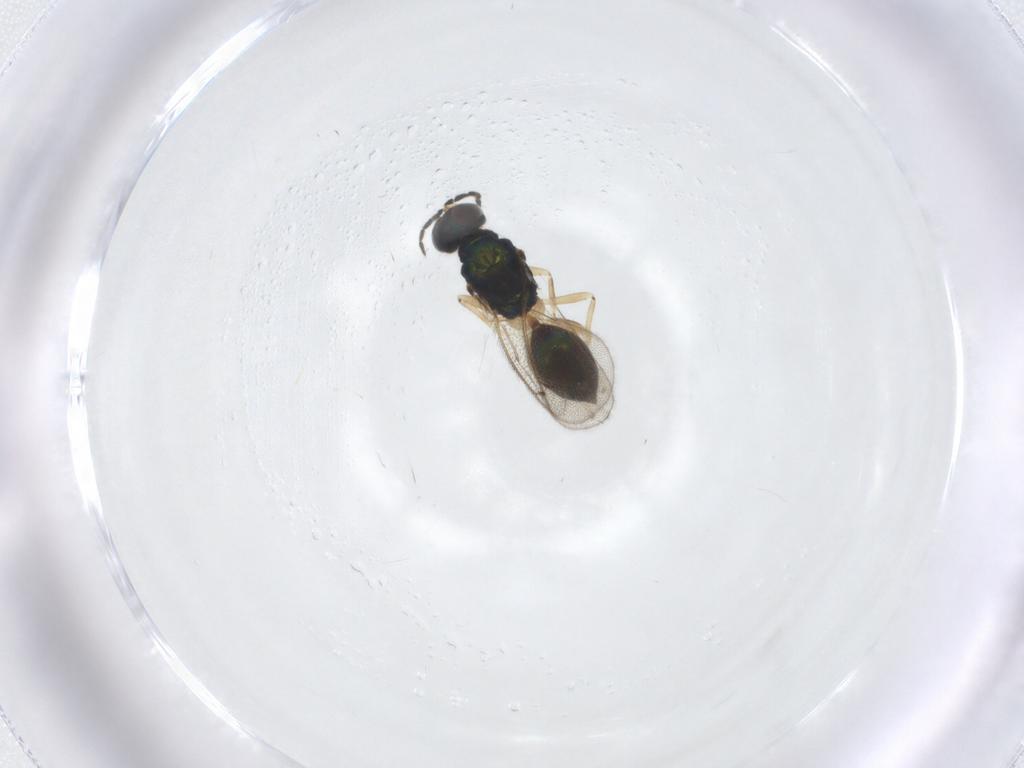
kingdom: Animalia
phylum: Arthropoda
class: Insecta
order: Hymenoptera
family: Eulophidae
